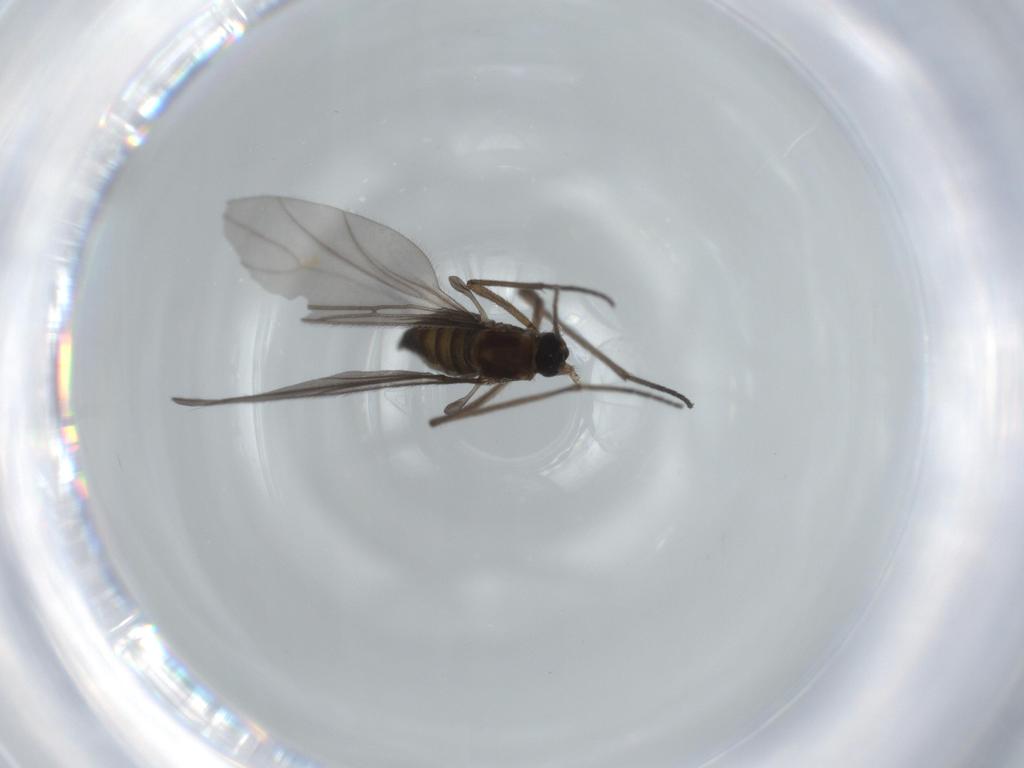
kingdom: Animalia
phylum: Arthropoda
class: Insecta
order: Diptera
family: Sciaridae
